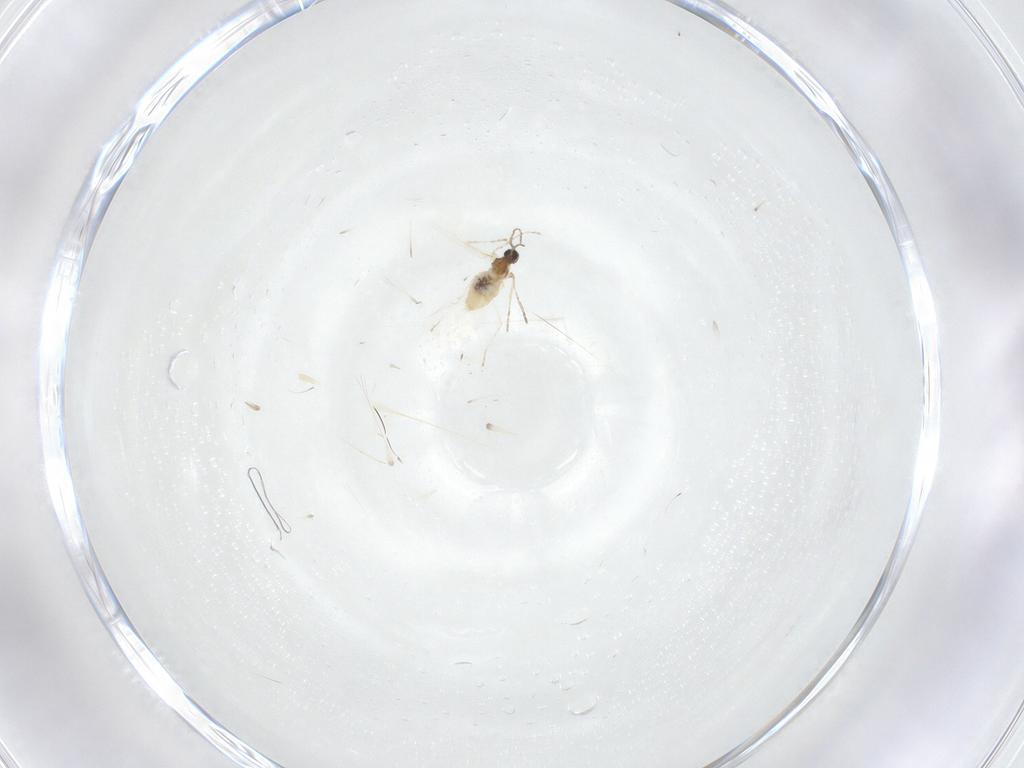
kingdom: Animalia
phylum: Arthropoda
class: Insecta
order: Diptera
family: Cecidomyiidae
